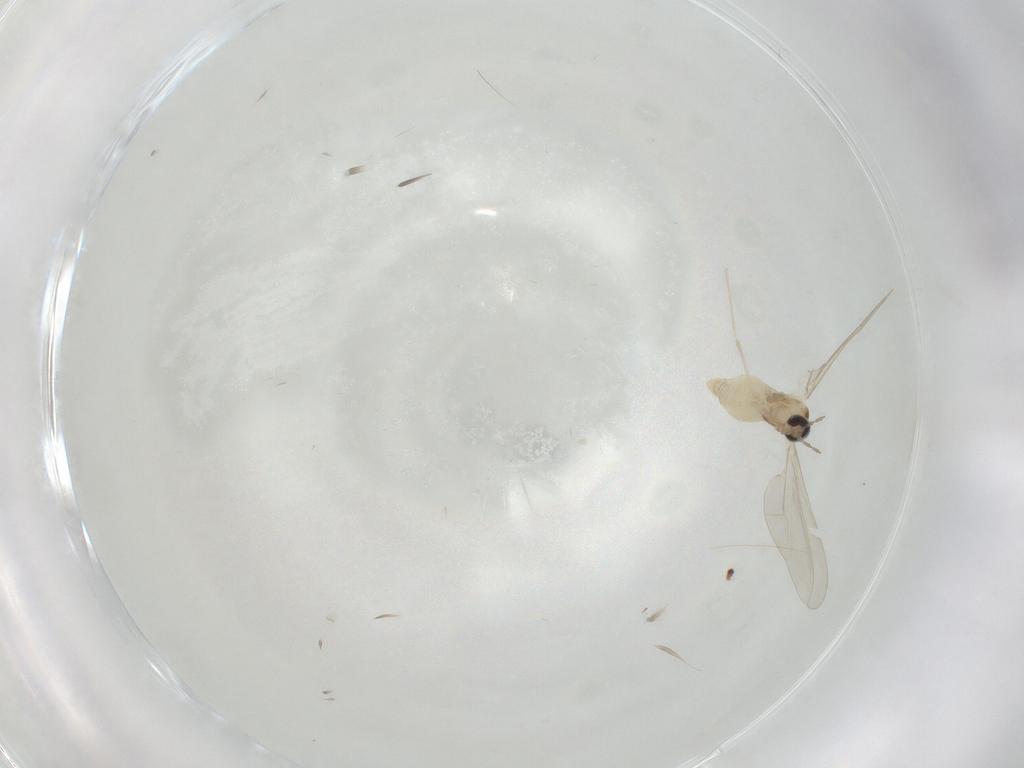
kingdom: Animalia
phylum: Arthropoda
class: Insecta
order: Diptera
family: Cecidomyiidae
